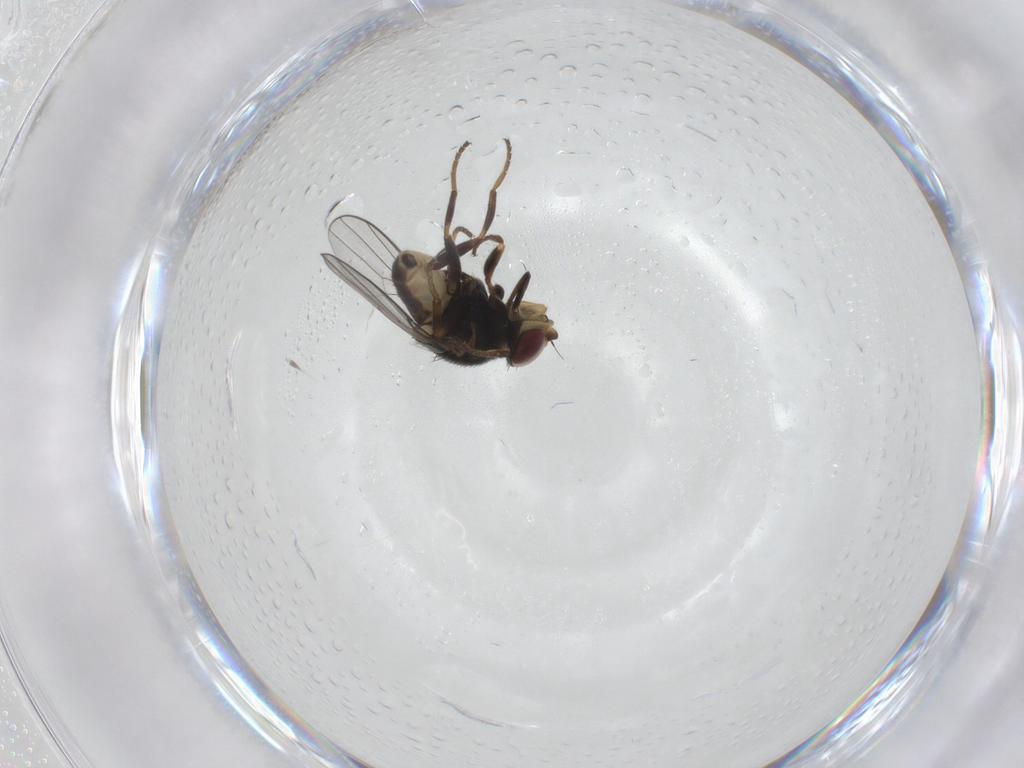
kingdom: Animalia
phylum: Arthropoda
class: Insecta
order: Diptera
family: Chloropidae
